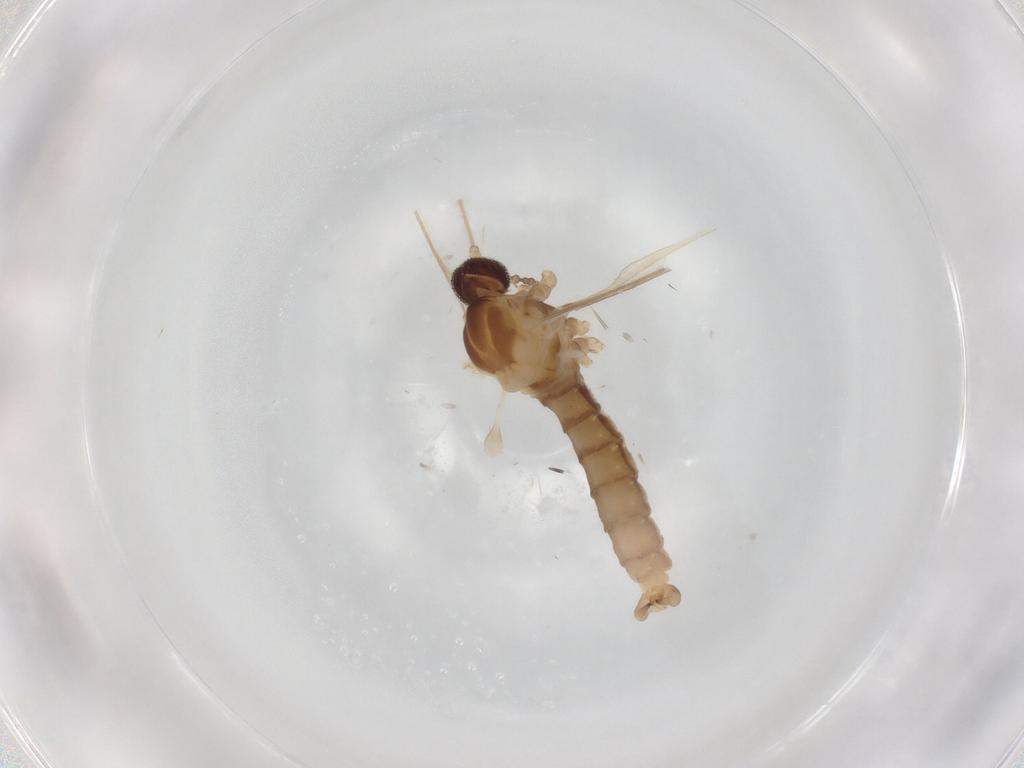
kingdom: Animalia
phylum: Arthropoda
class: Insecta
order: Diptera
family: Cecidomyiidae
